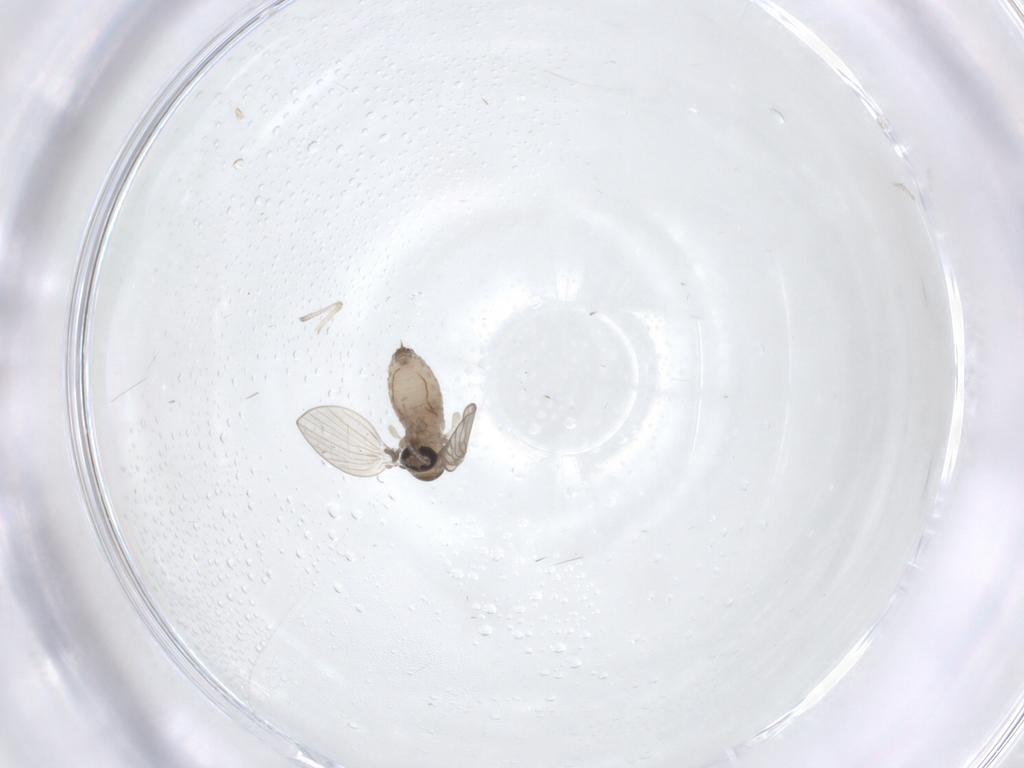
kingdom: Animalia
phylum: Arthropoda
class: Insecta
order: Diptera
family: Psychodidae
